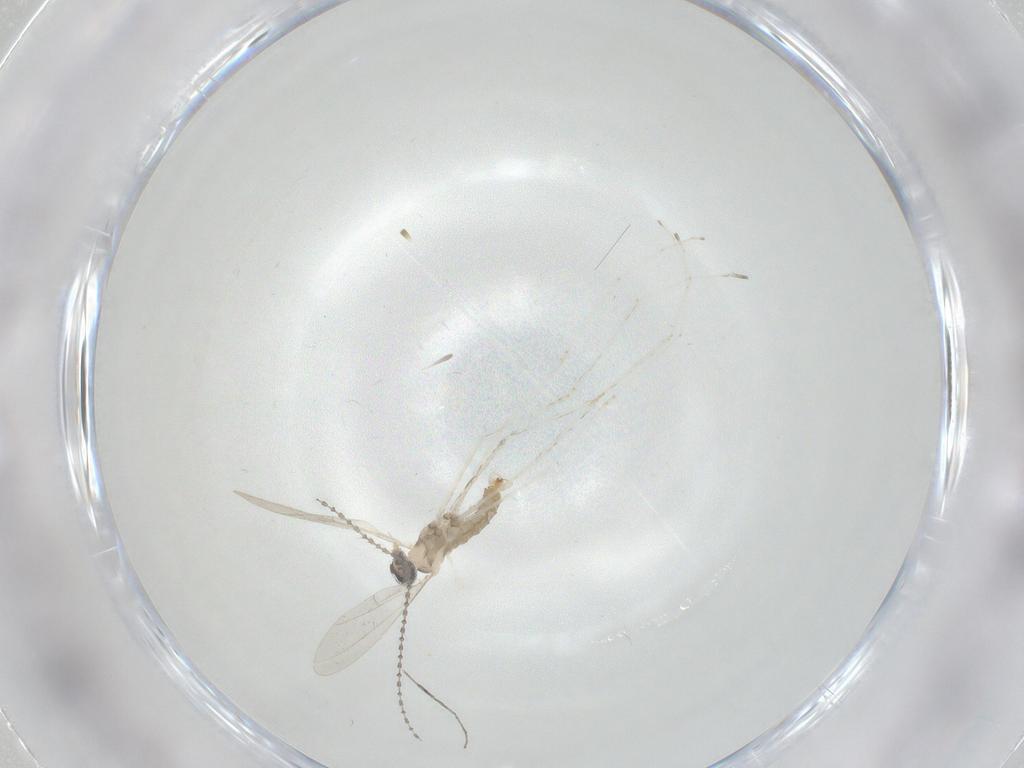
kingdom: Animalia
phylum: Arthropoda
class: Insecta
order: Diptera
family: Cecidomyiidae
